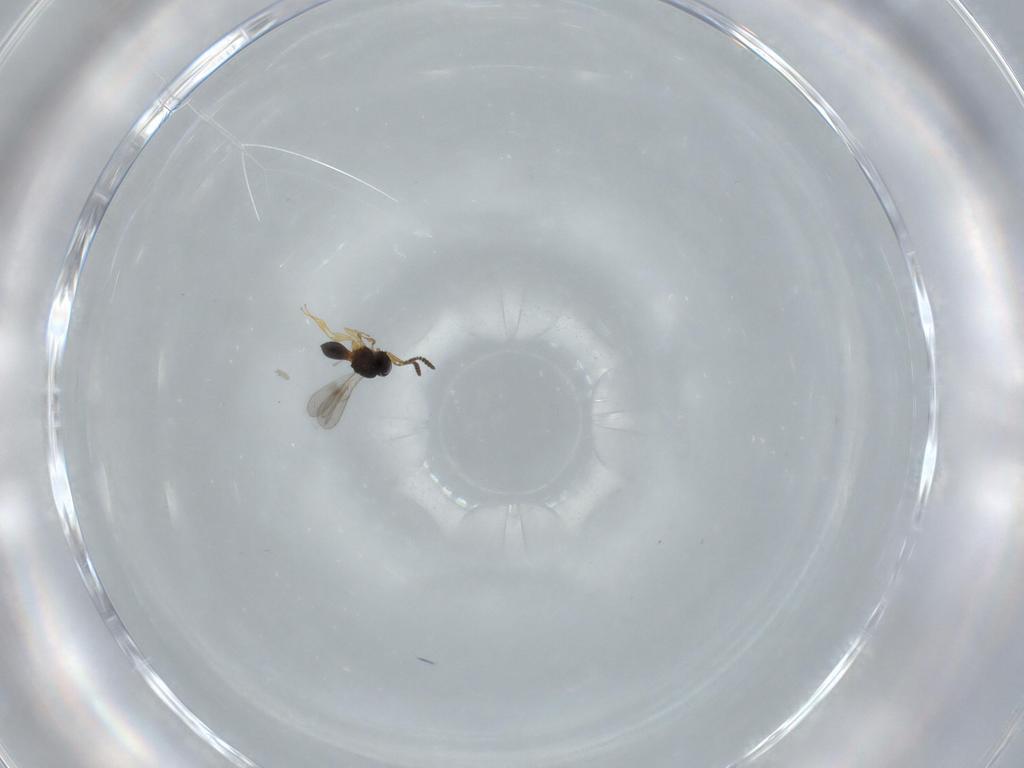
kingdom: Animalia
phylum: Arthropoda
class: Insecta
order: Hymenoptera
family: Scelionidae
